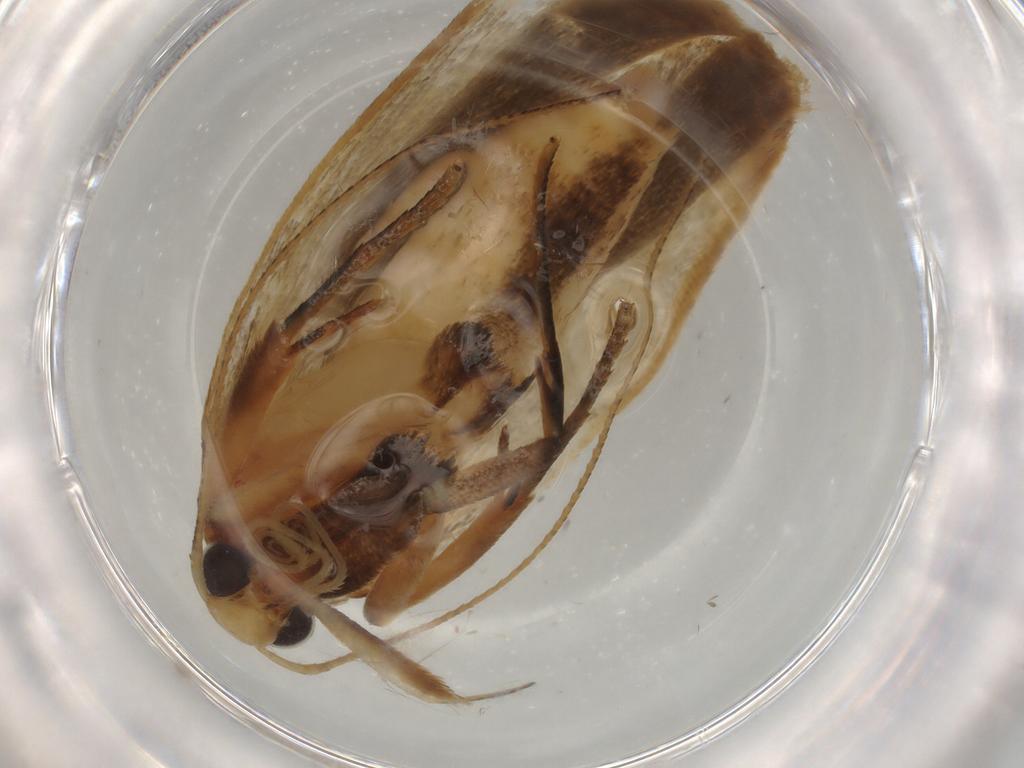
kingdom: Animalia
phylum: Arthropoda
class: Insecta
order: Lepidoptera
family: Gelechiidae
